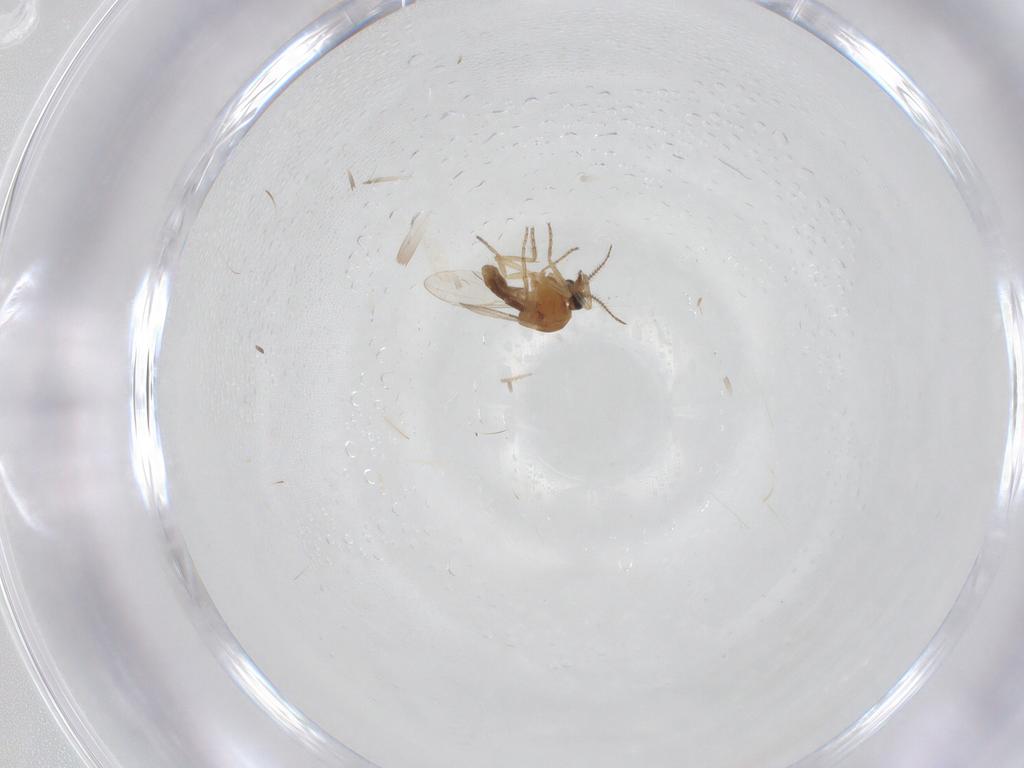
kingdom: Animalia
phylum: Arthropoda
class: Insecta
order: Diptera
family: Ceratopogonidae
